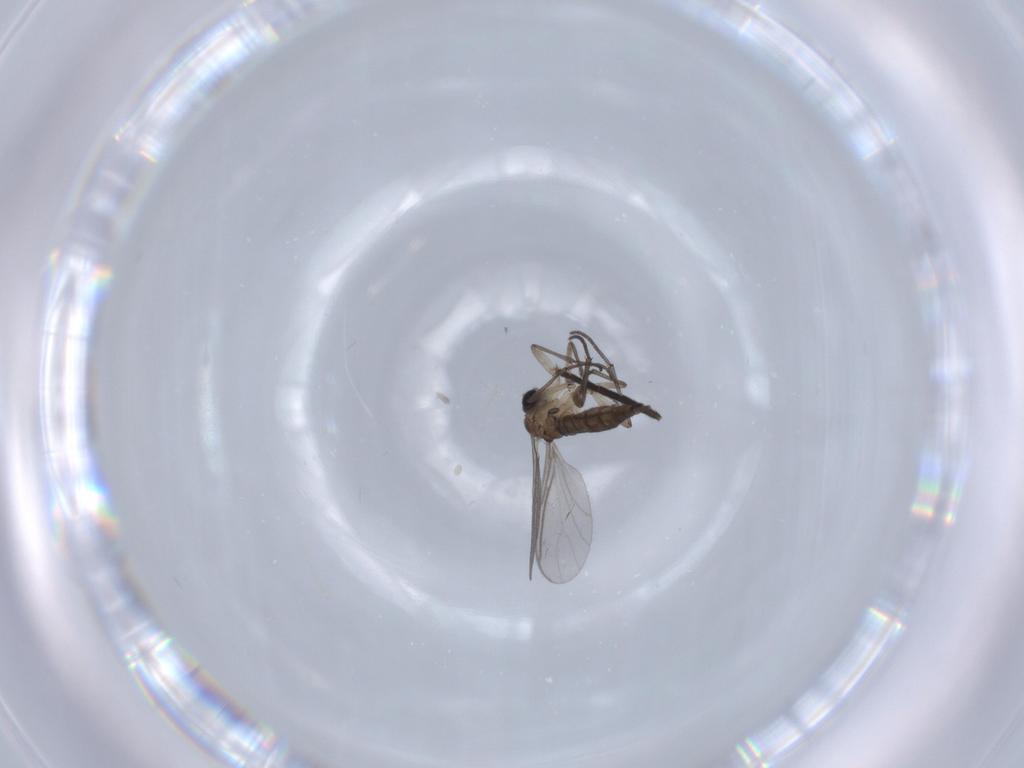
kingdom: Animalia
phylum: Arthropoda
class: Insecta
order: Diptera
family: Sciaridae
